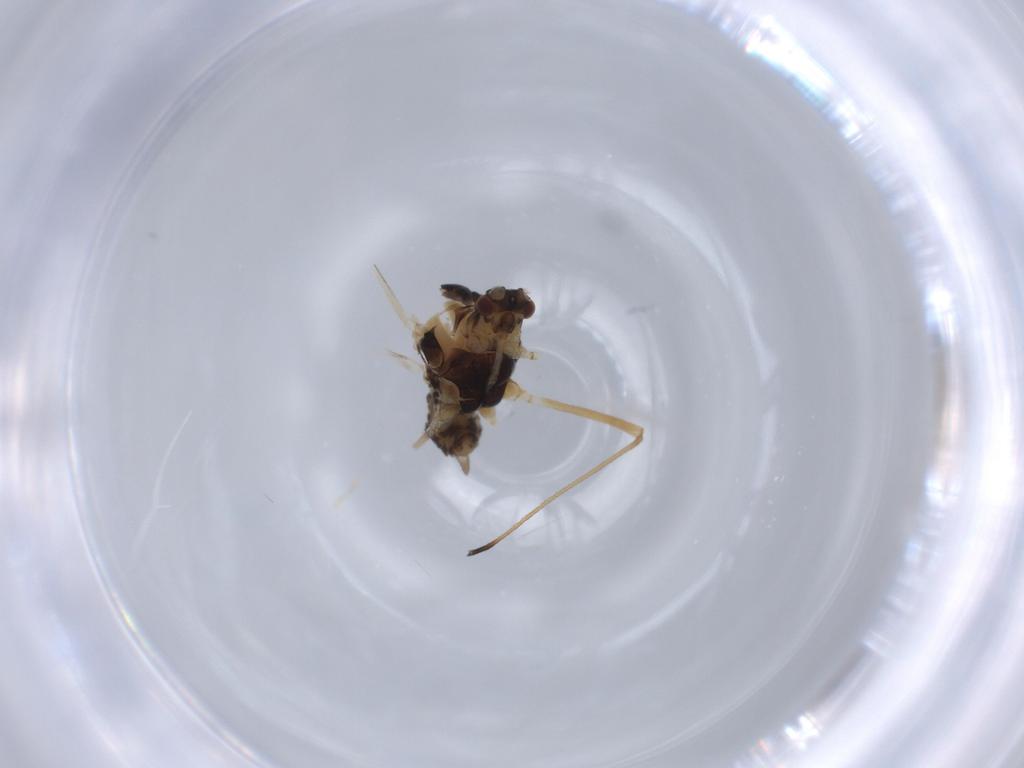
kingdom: Animalia
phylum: Arthropoda
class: Insecta
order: Hemiptera
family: Aphididae
